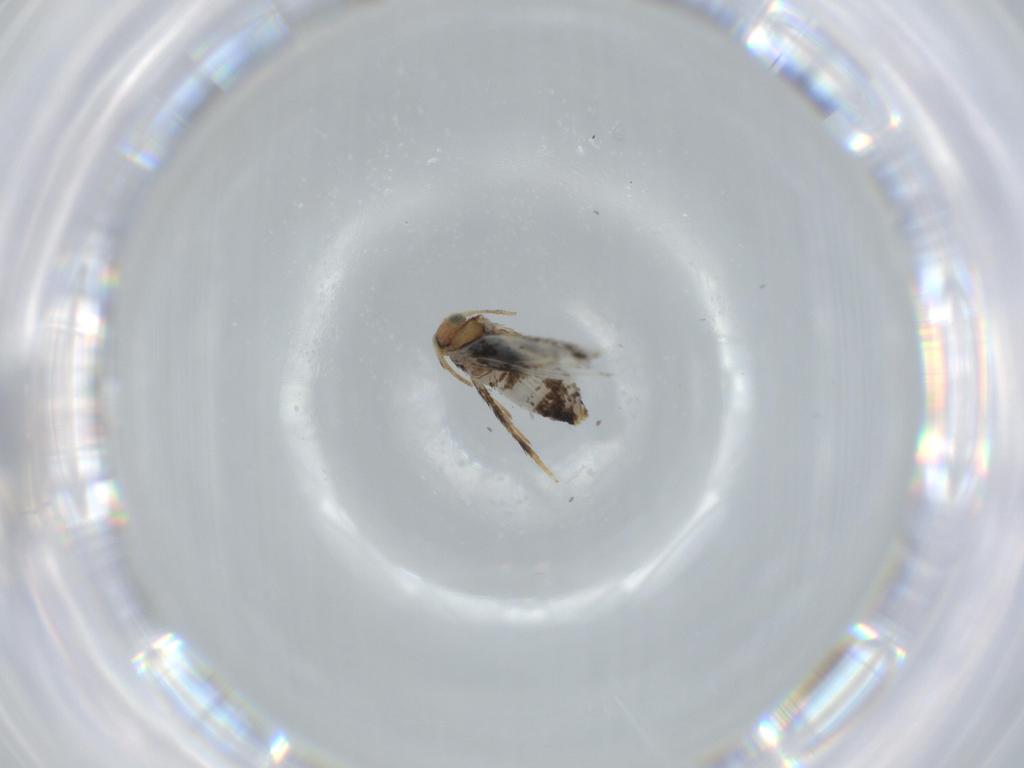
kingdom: Animalia
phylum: Arthropoda
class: Insecta
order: Lepidoptera
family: Nepticulidae
